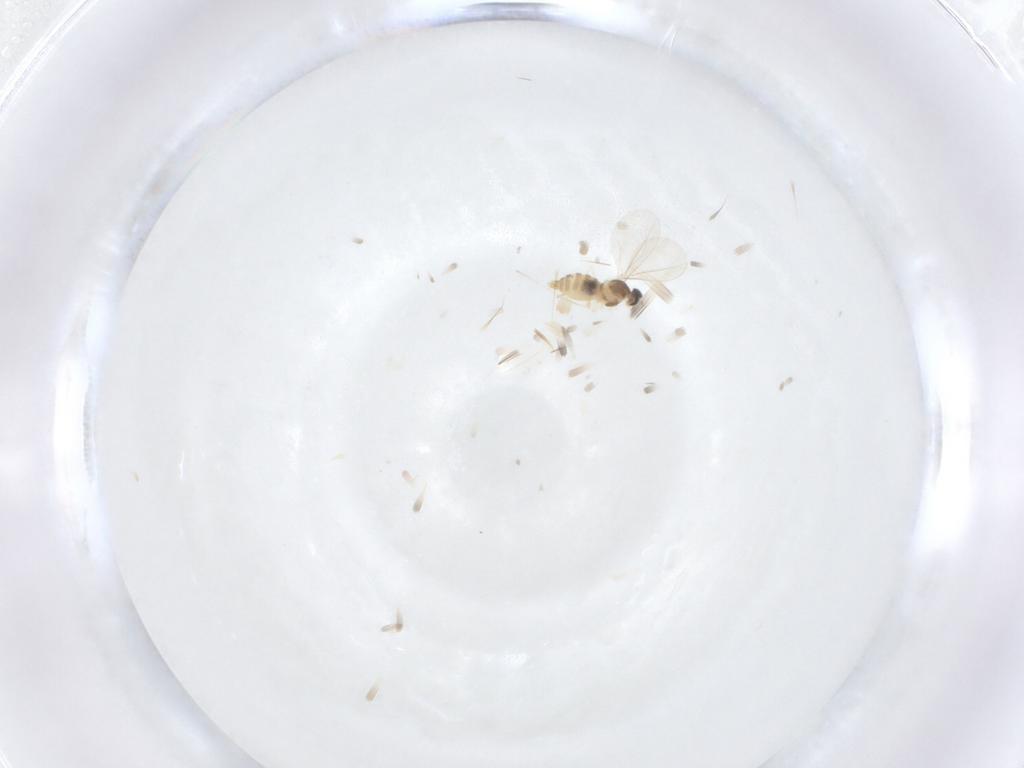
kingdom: Animalia
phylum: Arthropoda
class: Insecta
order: Diptera
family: Cecidomyiidae
